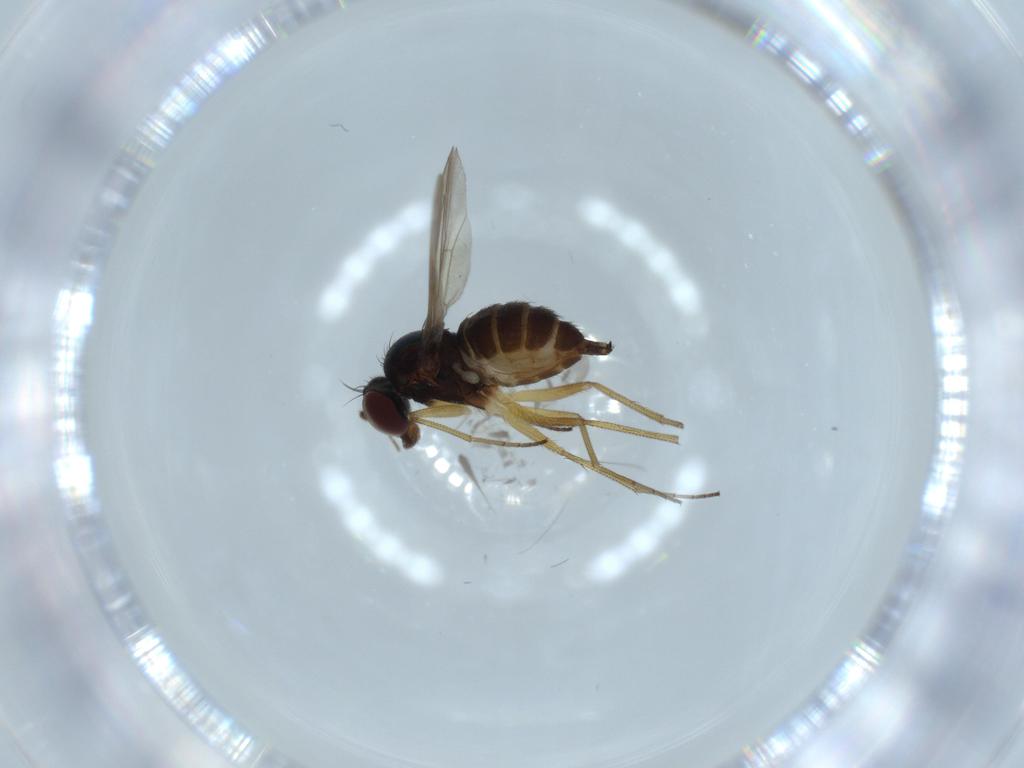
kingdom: Animalia
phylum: Arthropoda
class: Insecta
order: Diptera
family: Dolichopodidae
